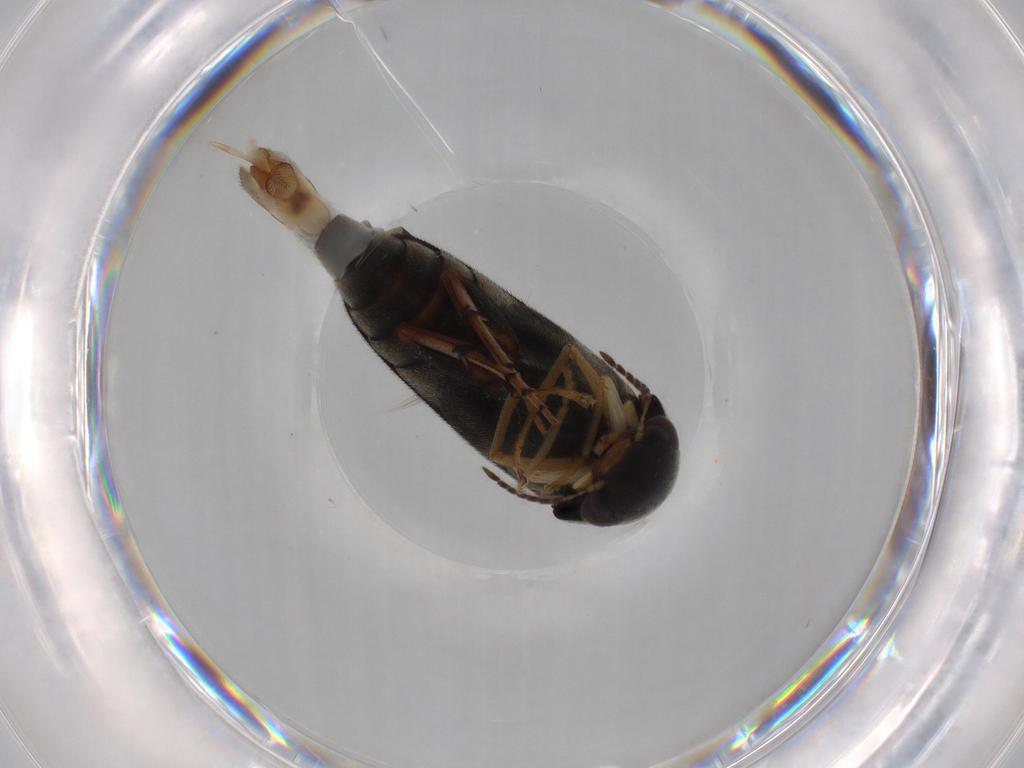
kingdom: Animalia
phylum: Arthropoda
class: Insecta
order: Coleoptera
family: Mordellidae
